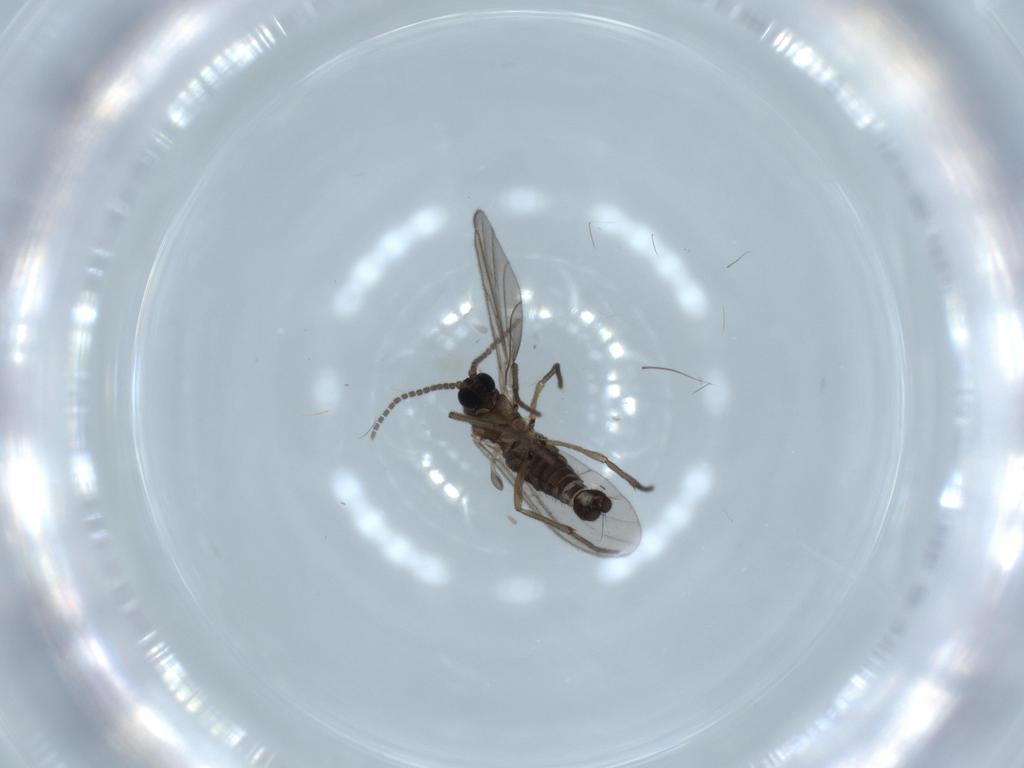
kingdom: Animalia
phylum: Arthropoda
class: Insecta
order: Diptera
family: Sciaridae
